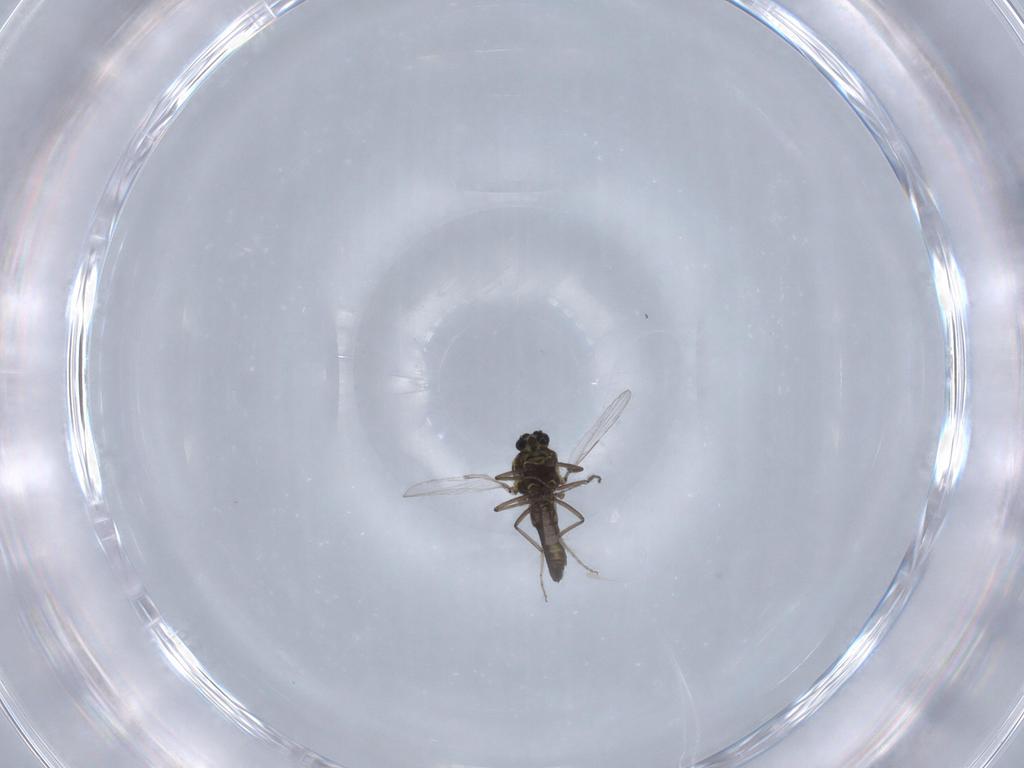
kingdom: Animalia
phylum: Arthropoda
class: Insecta
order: Diptera
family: Ceratopogonidae
